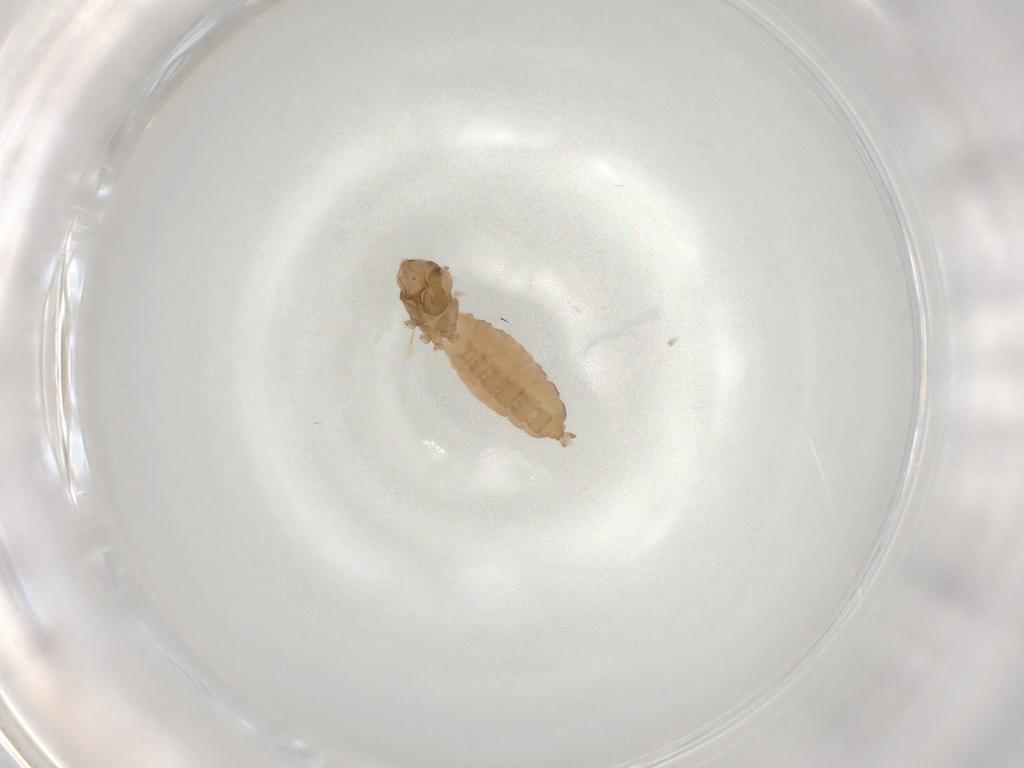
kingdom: Animalia
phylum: Arthropoda
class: Insecta
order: Diptera
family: Cecidomyiidae
